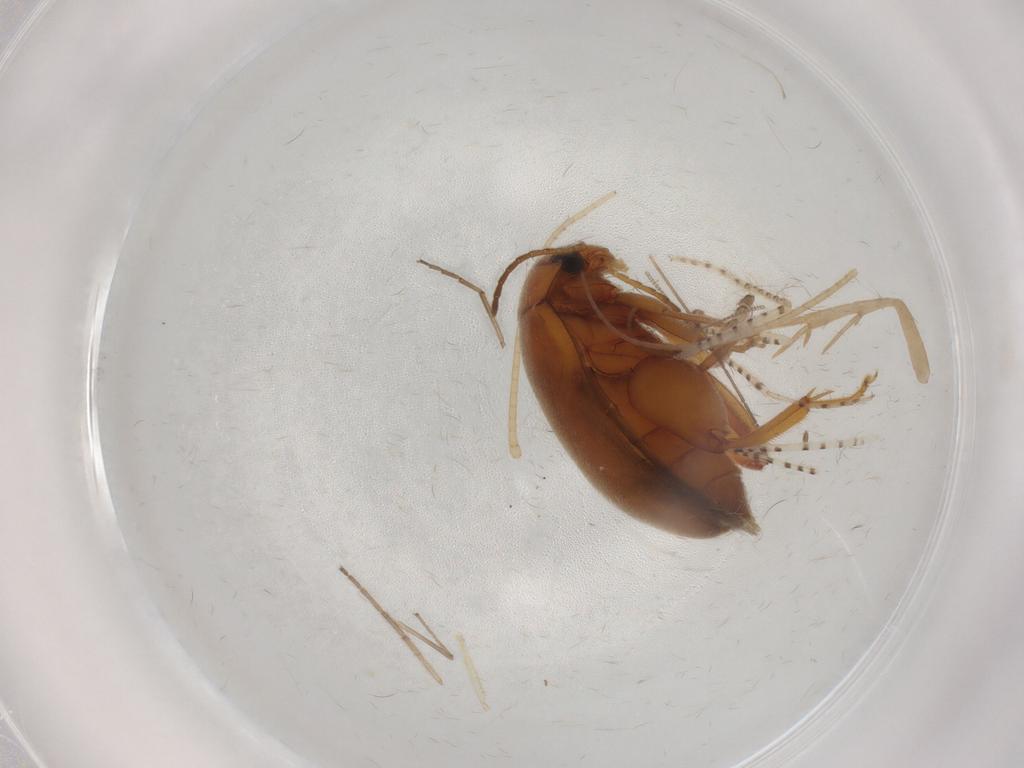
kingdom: Animalia
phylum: Arthropoda
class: Insecta
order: Coleoptera
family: Scirtidae
